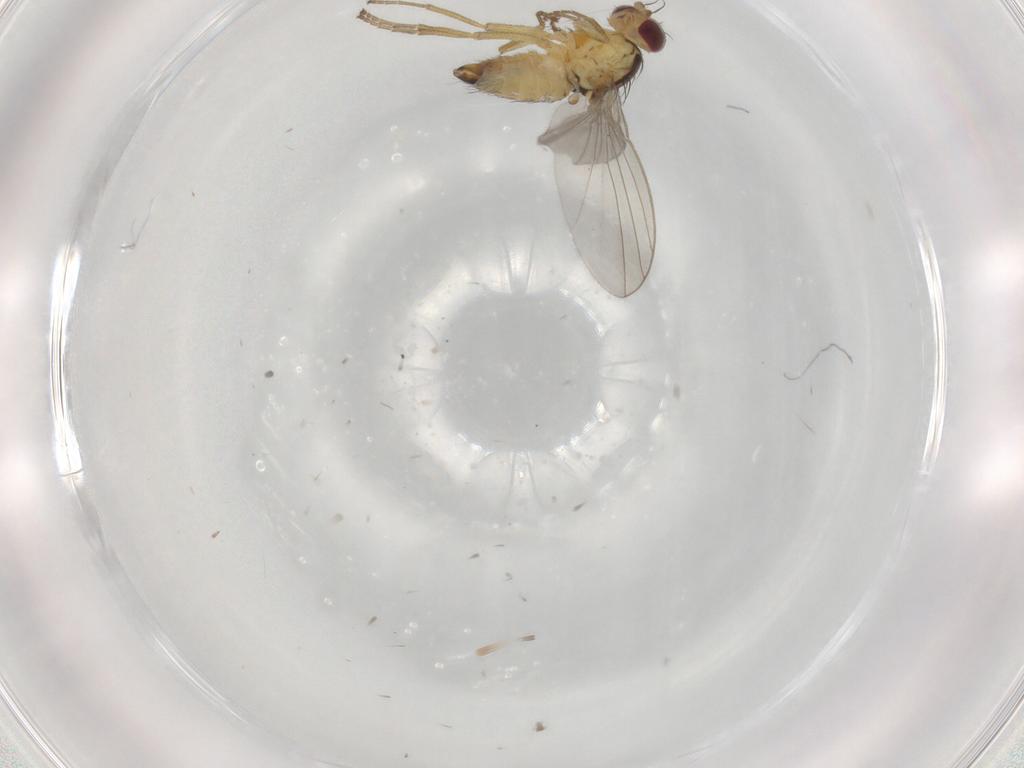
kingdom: Animalia
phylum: Arthropoda
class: Insecta
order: Diptera
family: Agromyzidae
